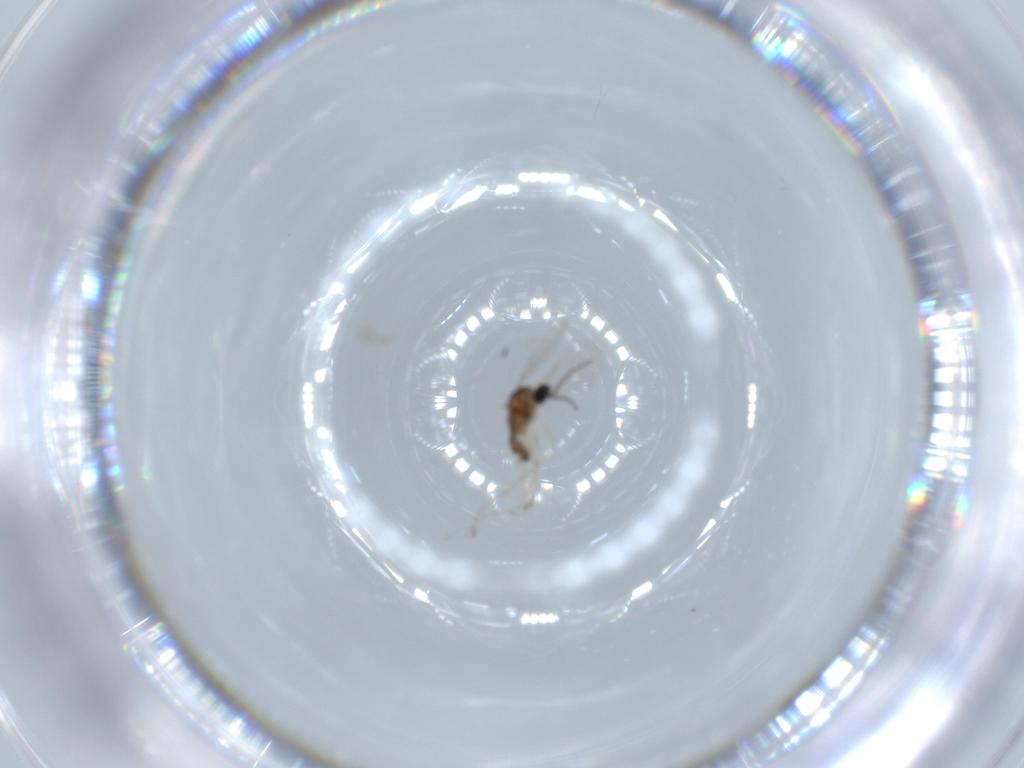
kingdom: Animalia
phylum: Arthropoda
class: Insecta
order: Diptera
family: Cecidomyiidae
